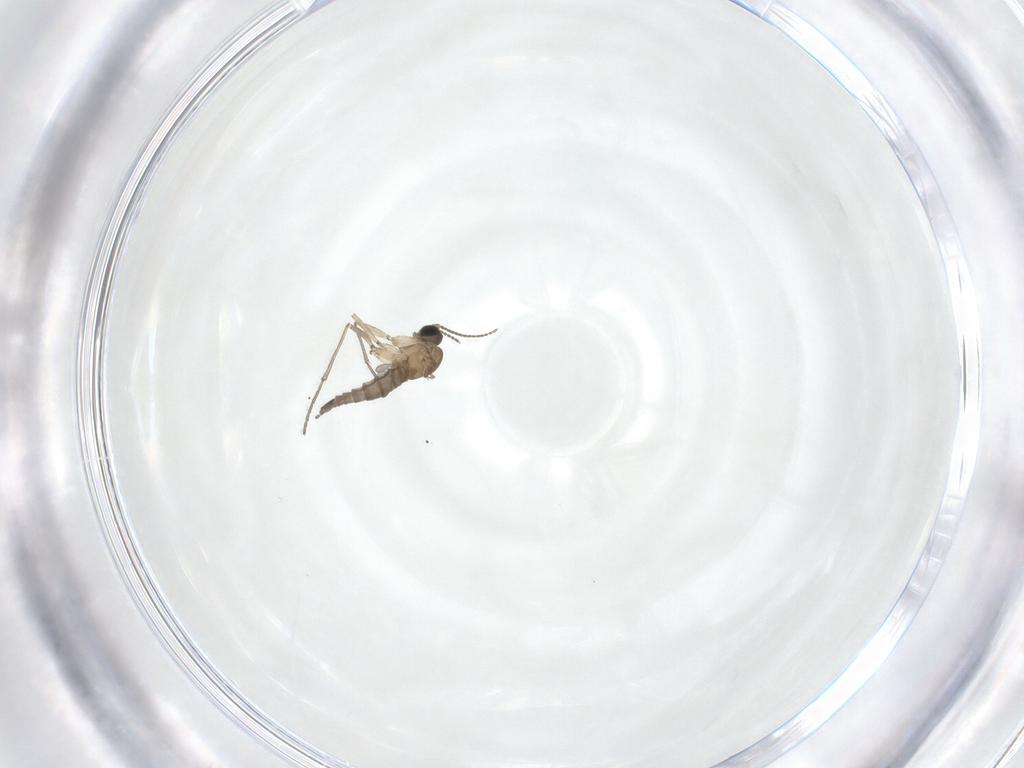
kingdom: Animalia
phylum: Arthropoda
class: Insecta
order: Diptera
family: Sciaridae
